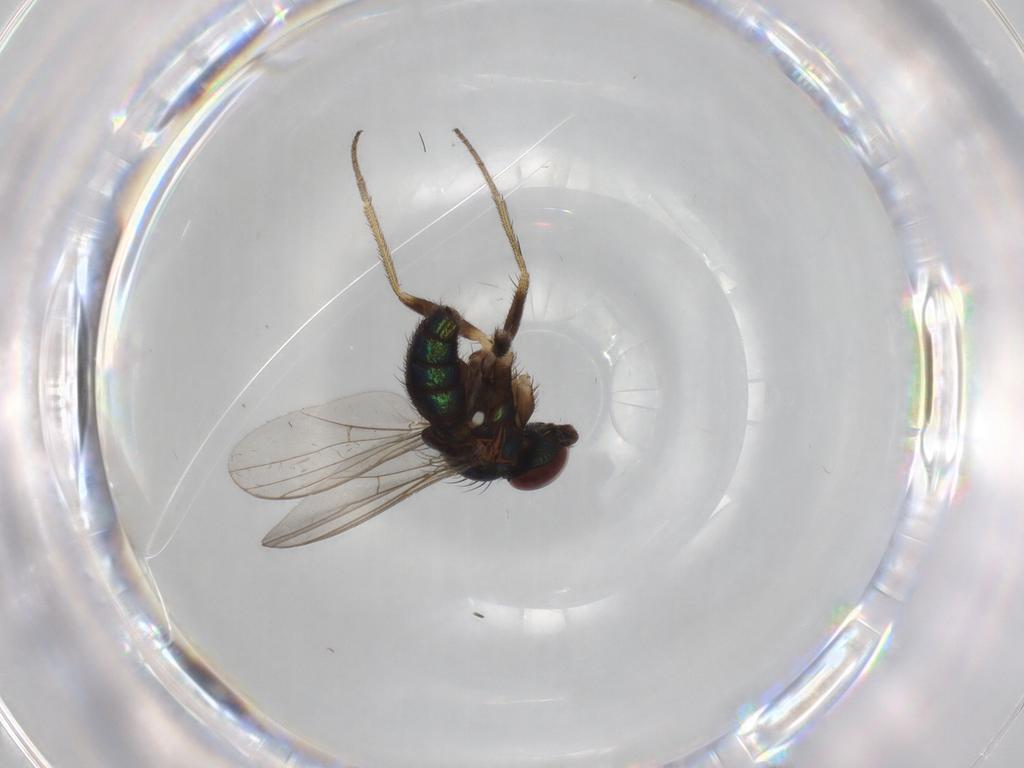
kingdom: Animalia
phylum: Arthropoda
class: Insecta
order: Diptera
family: Dolichopodidae
